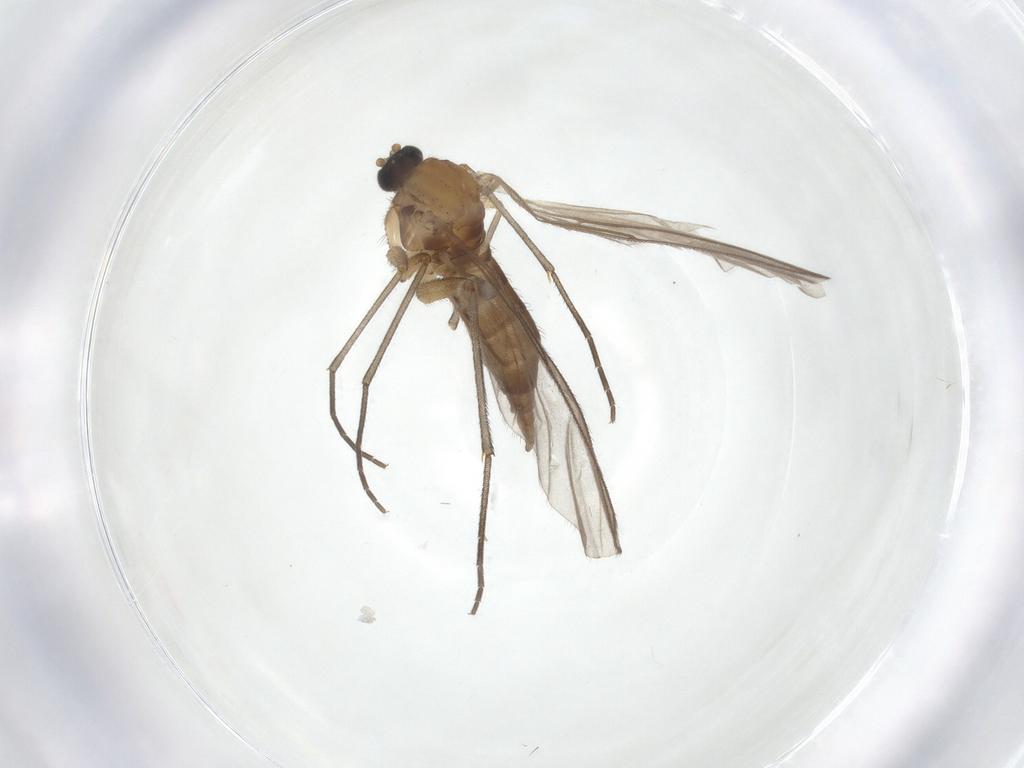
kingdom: Animalia
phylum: Arthropoda
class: Insecta
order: Diptera
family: Sciaridae
